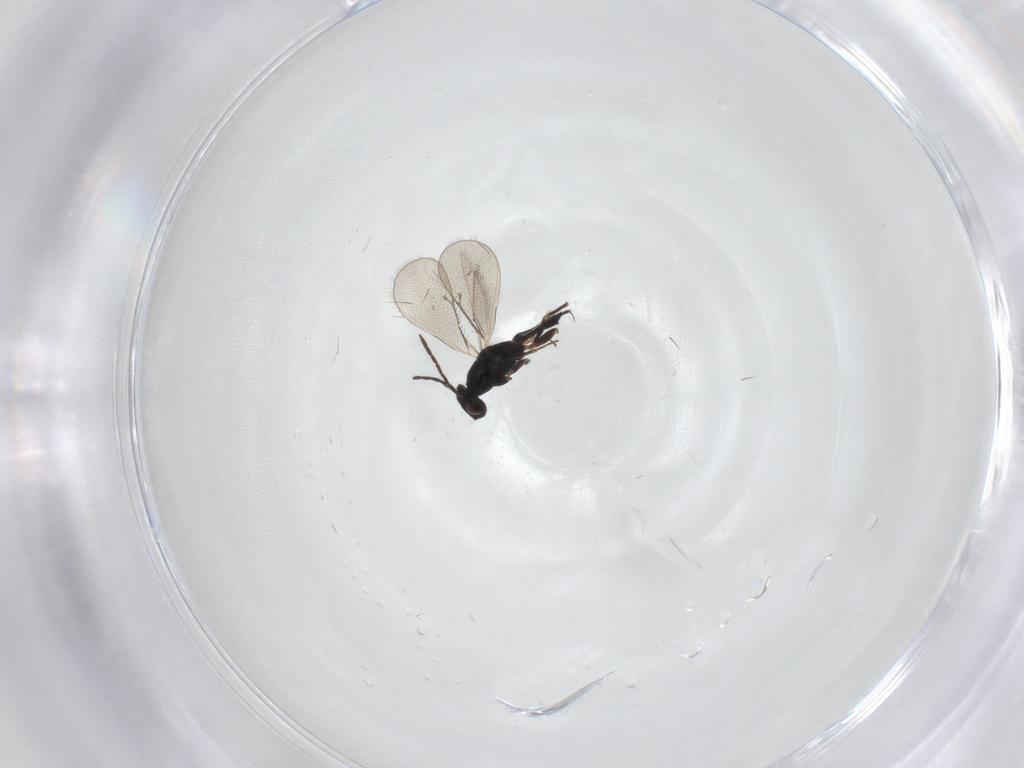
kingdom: Animalia
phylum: Arthropoda
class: Insecta
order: Hymenoptera
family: Eulophidae
